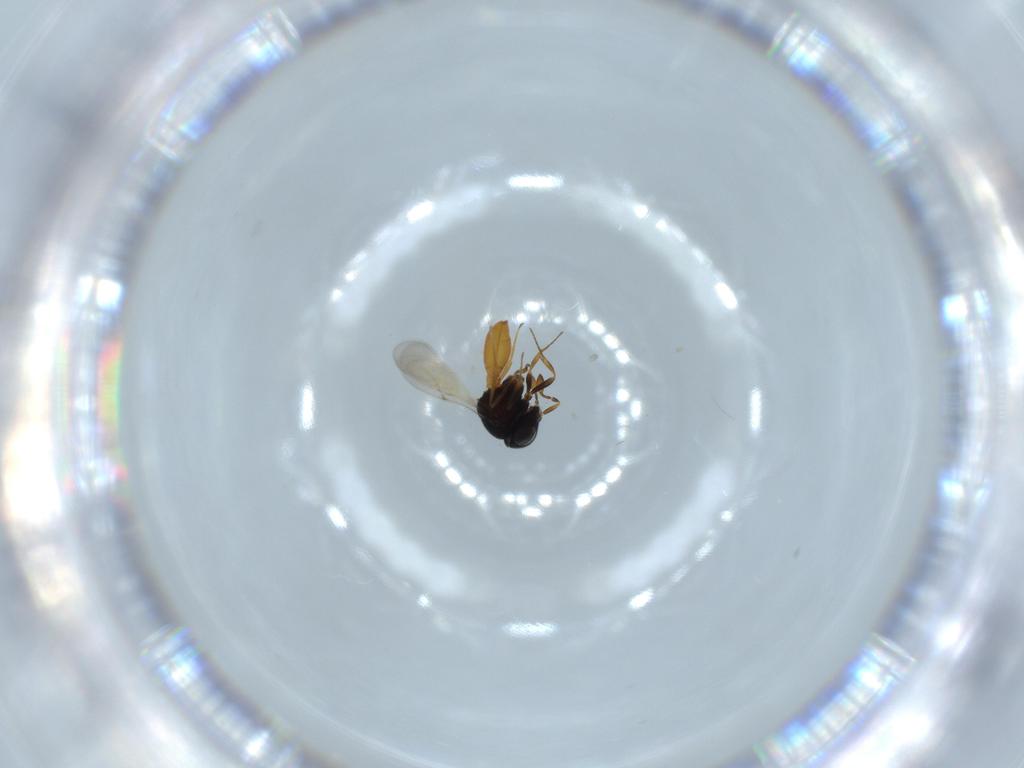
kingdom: Animalia
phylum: Arthropoda
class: Insecta
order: Hymenoptera
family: Scelionidae
